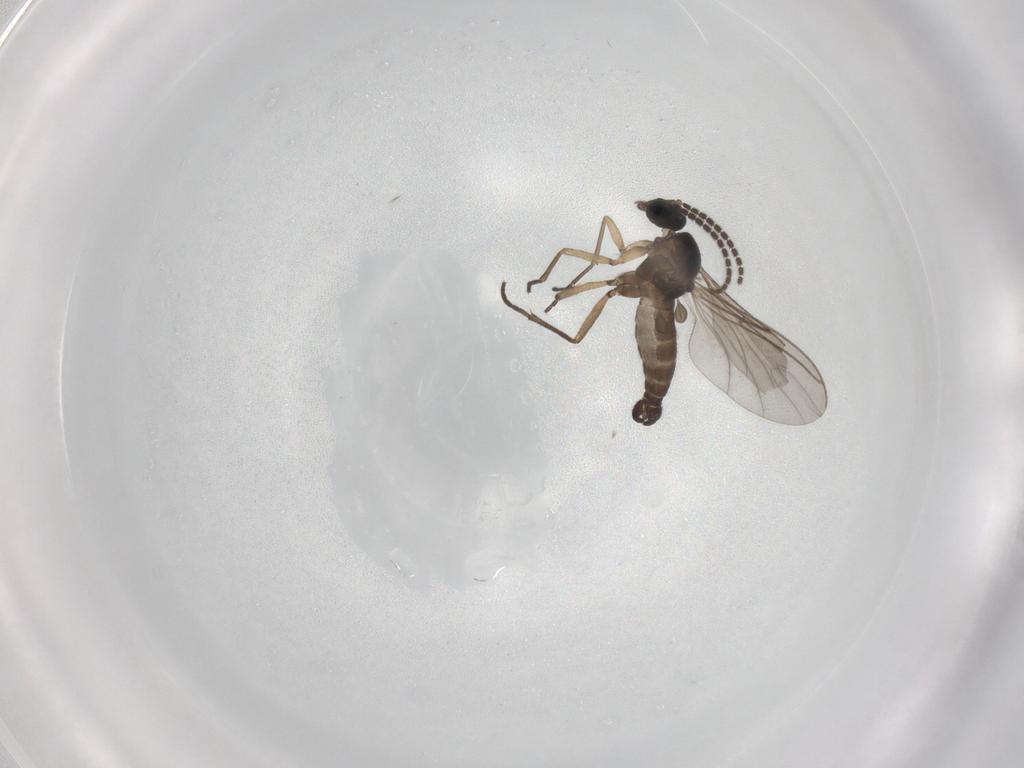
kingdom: Animalia
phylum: Arthropoda
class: Insecta
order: Diptera
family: Sciaridae
